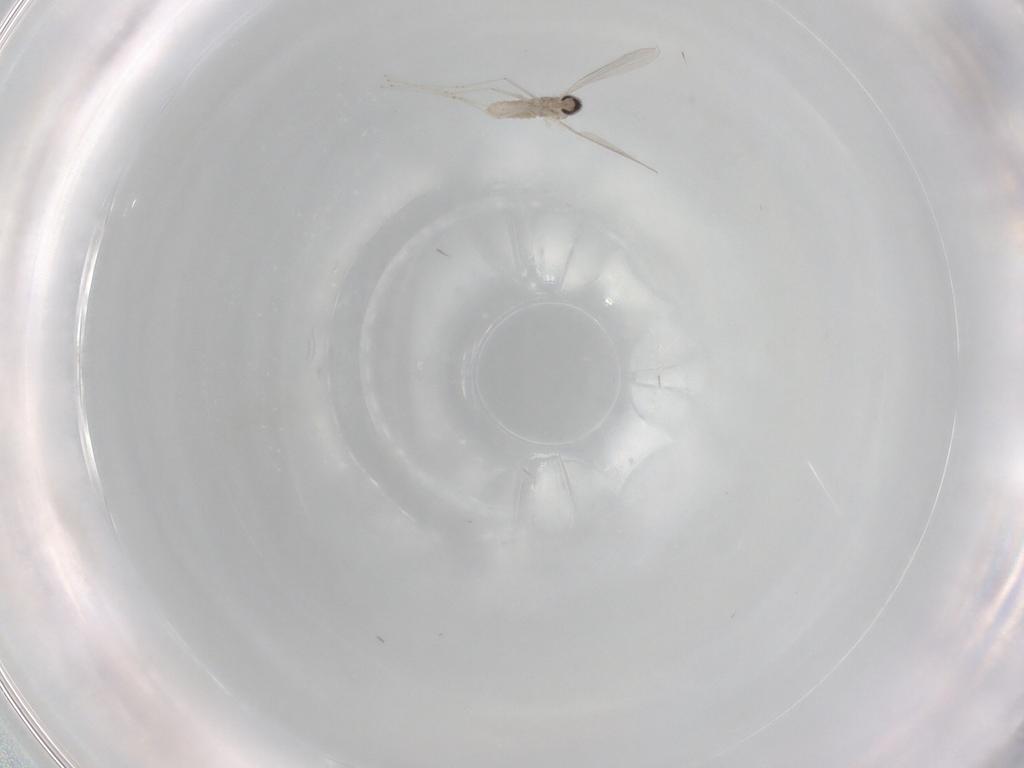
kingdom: Animalia
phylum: Arthropoda
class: Insecta
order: Diptera
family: Cecidomyiidae
